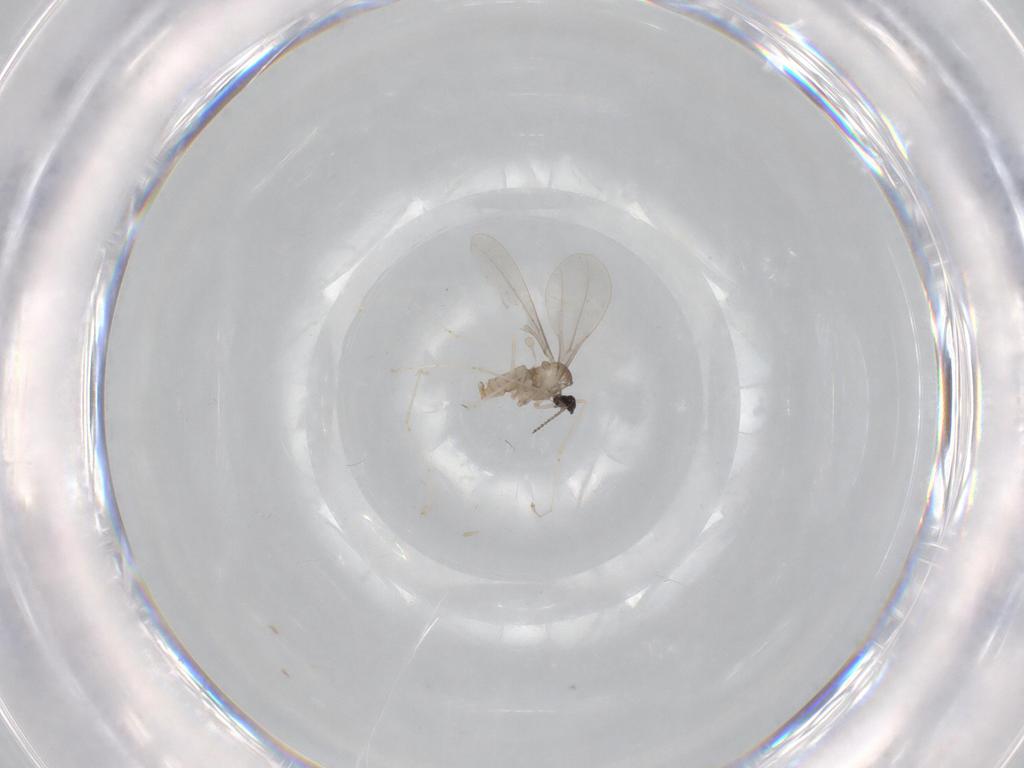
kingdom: Animalia
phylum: Arthropoda
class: Insecta
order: Diptera
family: Cecidomyiidae
